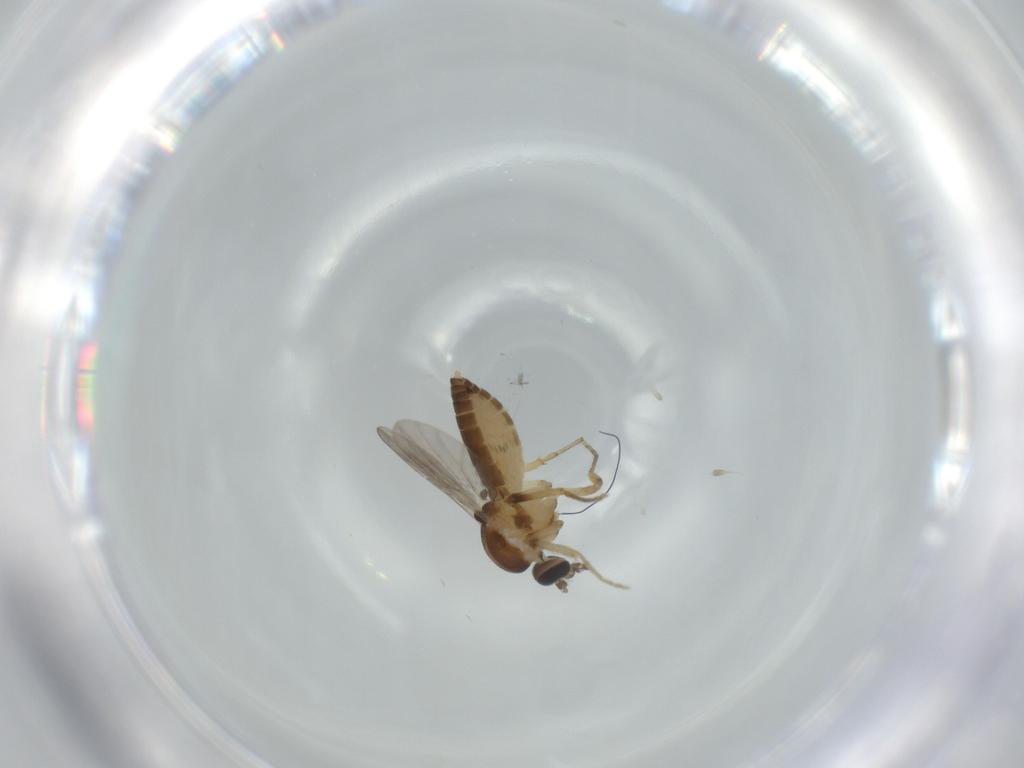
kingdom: Animalia
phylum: Arthropoda
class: Insecta
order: Diptera
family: Ceratopogonidae
